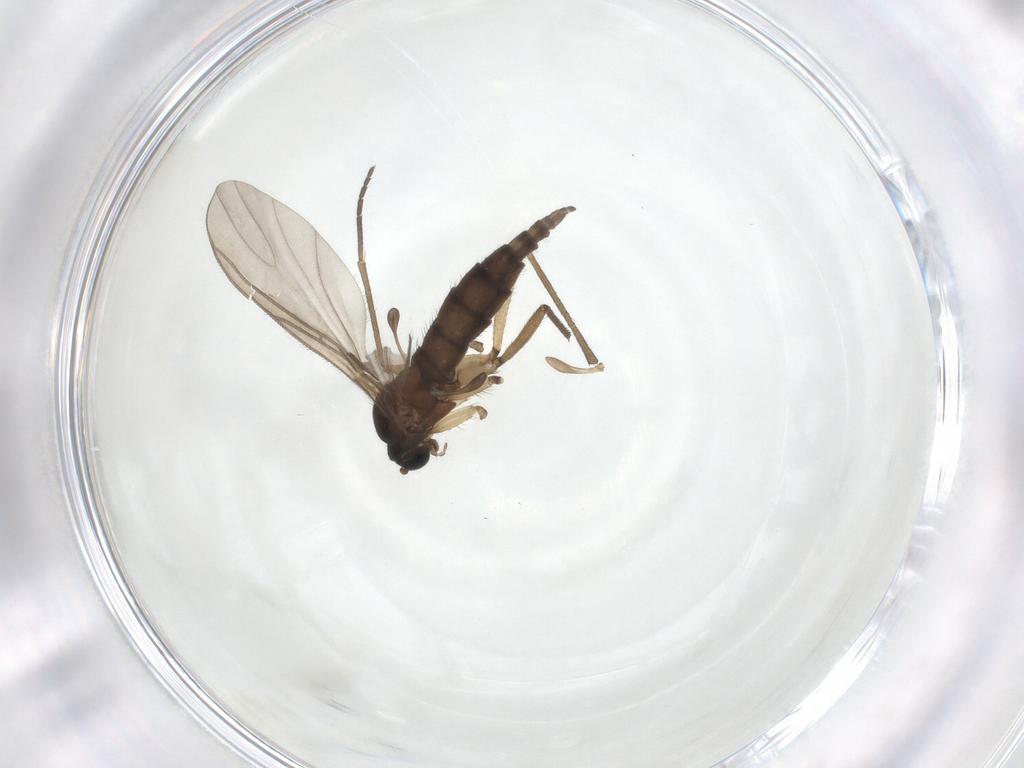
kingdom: Animalia
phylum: Arthropoda
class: Insecta
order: Diptera
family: Sciaridae
